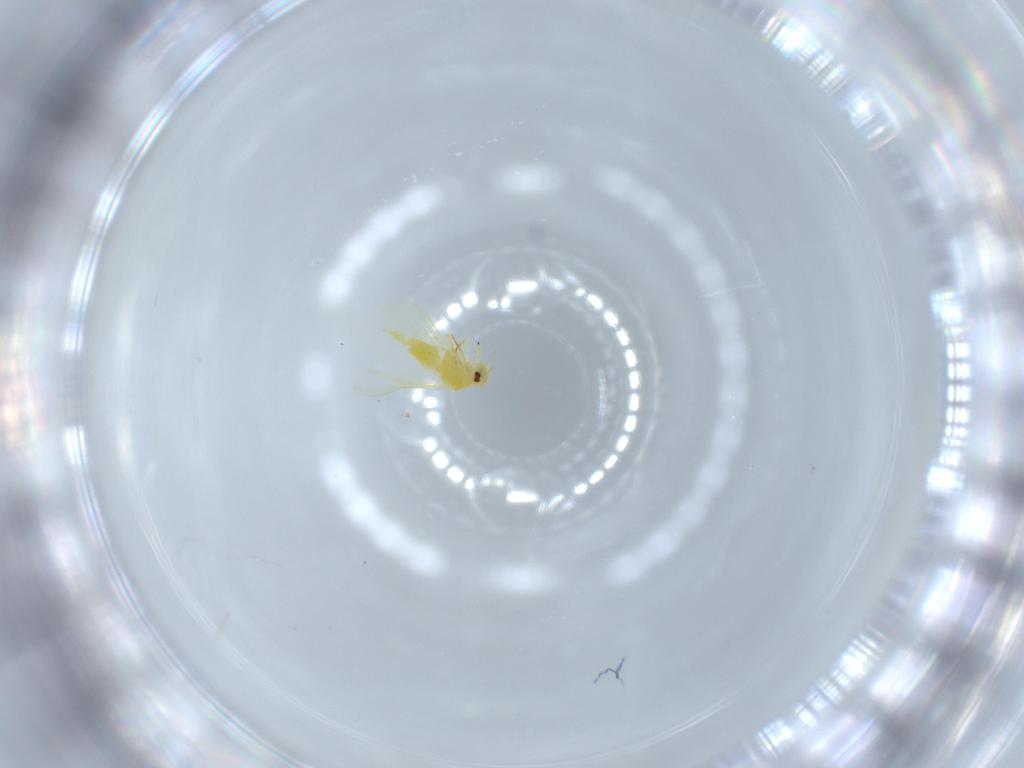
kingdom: Animalia
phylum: Arthropoda
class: Insecta
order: Hemiptera
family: Aleyrodidae
